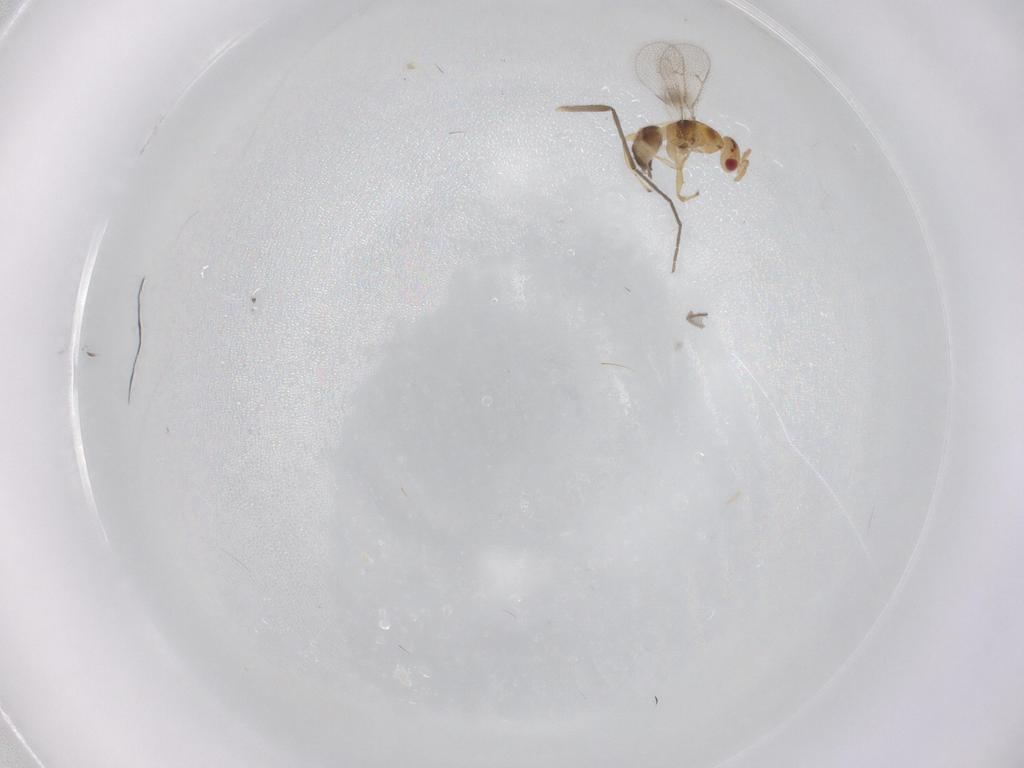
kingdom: Animalia
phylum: Arthropoda
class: Insecta
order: Hymenoptera
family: Torymidae
